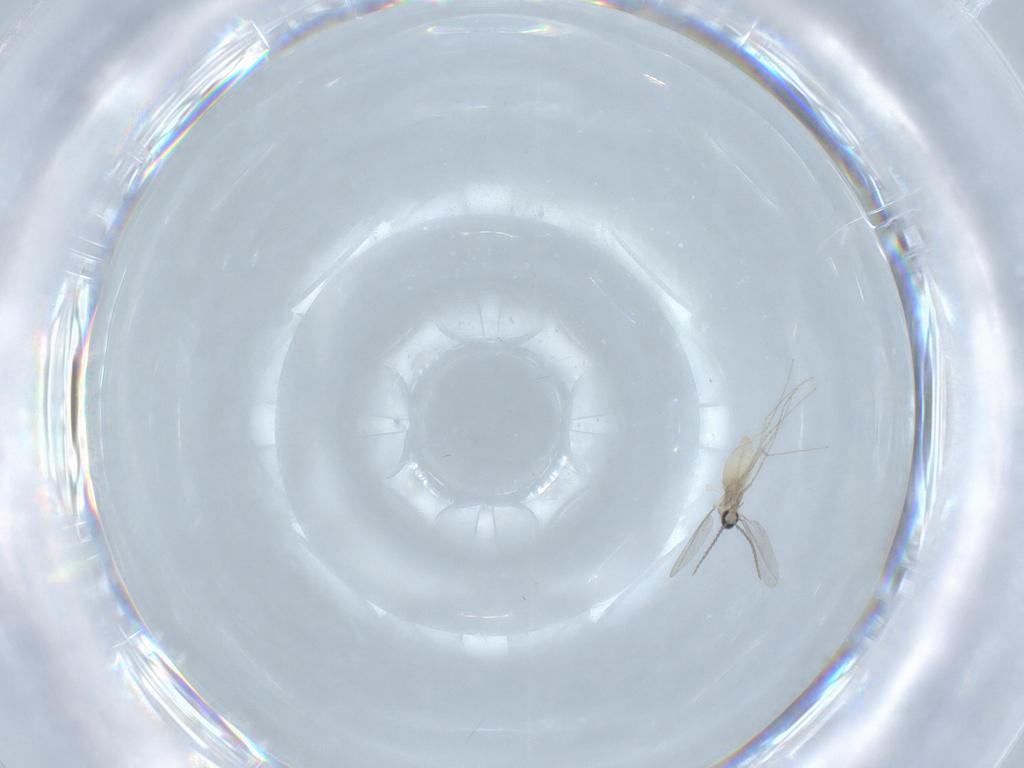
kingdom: Animalia
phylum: Arthropoda
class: Insecta
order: Diptera
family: Cecidomyiidae
